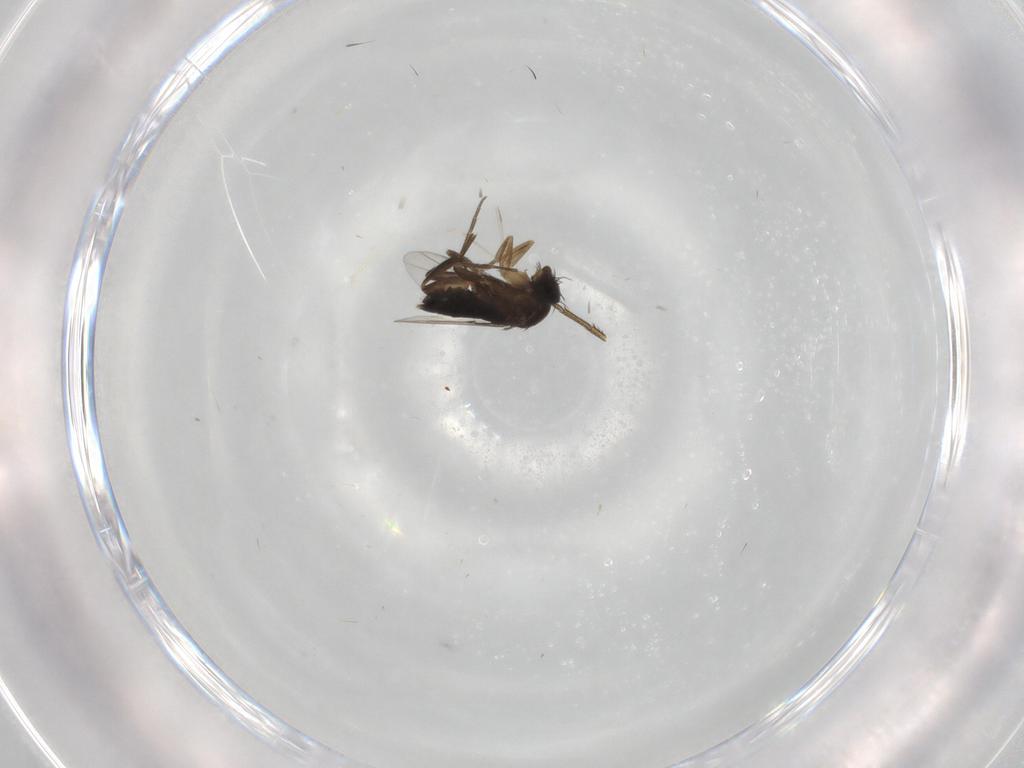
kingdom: Animalia
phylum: Arthropoda
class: Insecta
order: Diptera
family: Phoridae
